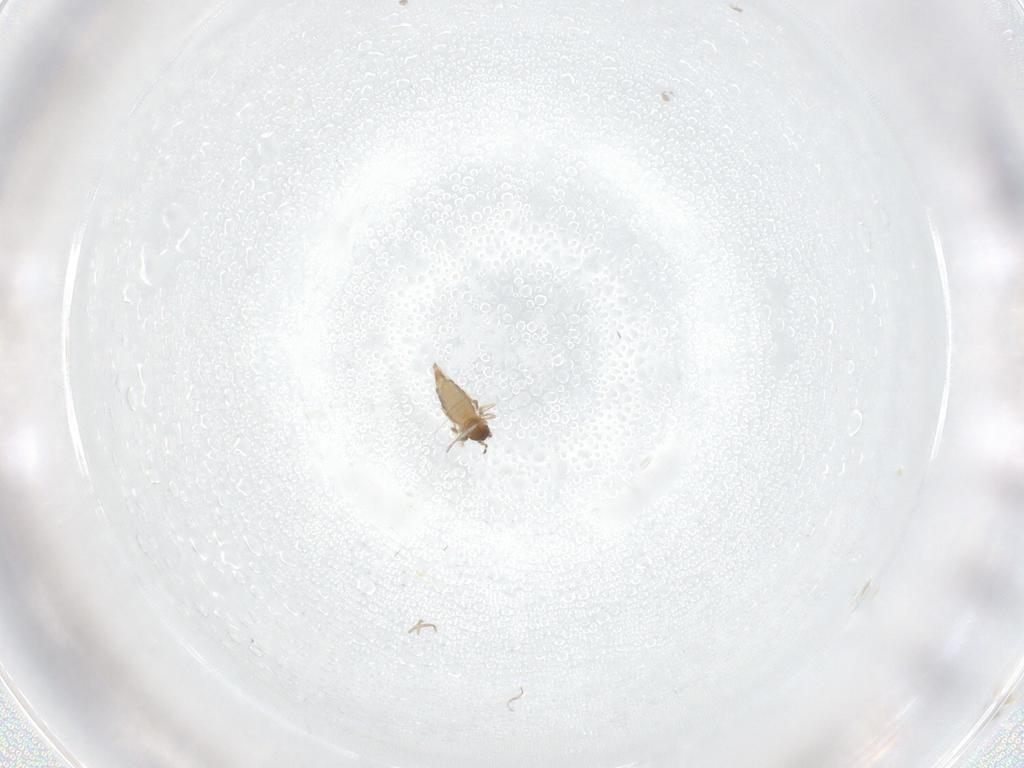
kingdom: Animalia
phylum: Arthropoda
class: Insecta
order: Diptera
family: Cecidomyiidae
